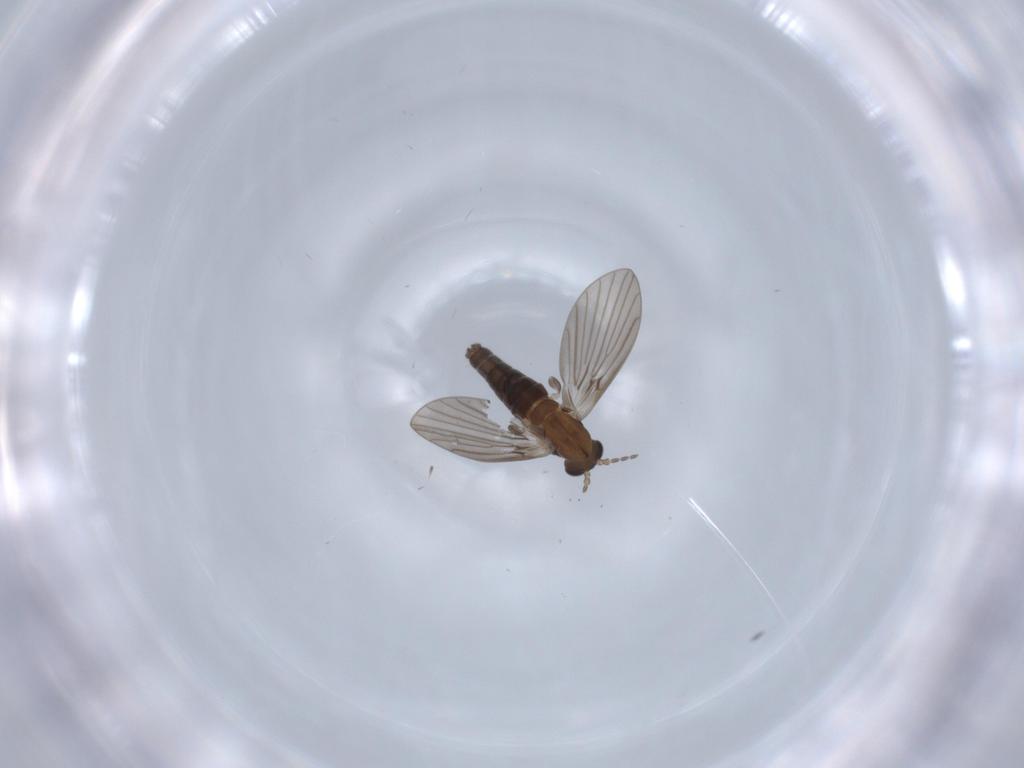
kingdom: Animalia
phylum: Arthropoda
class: Insecta
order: Diptera
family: Psychodidae
